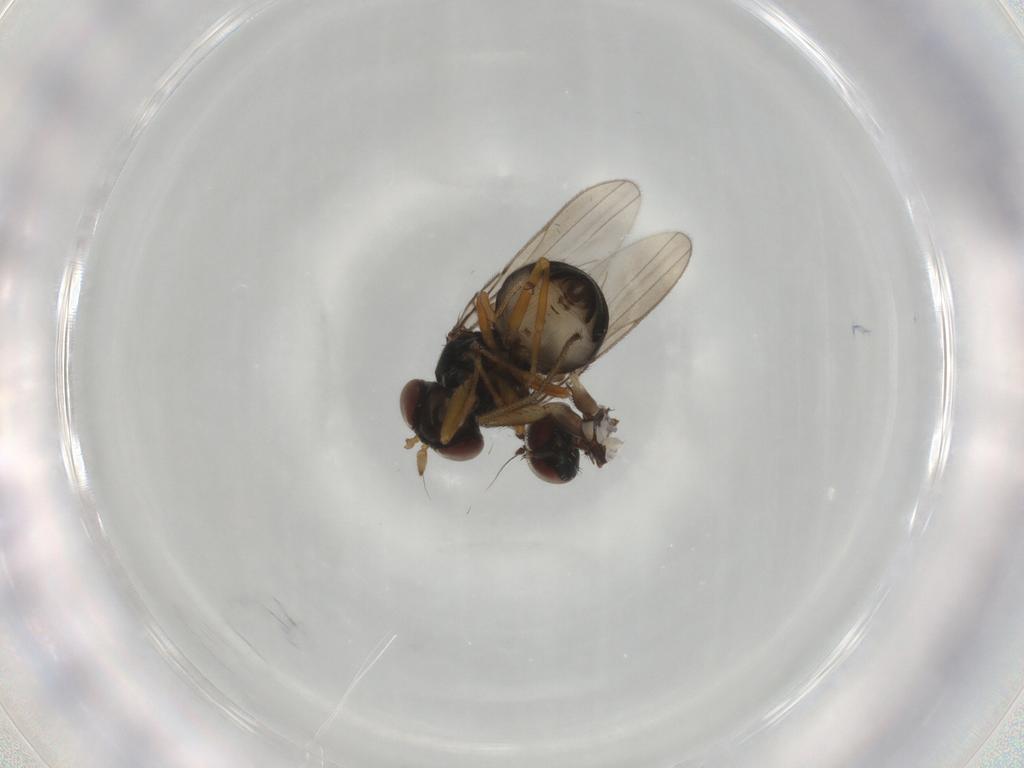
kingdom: Animalia
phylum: Arthropoda
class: Insecta
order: Diptera
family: Ephydridae
